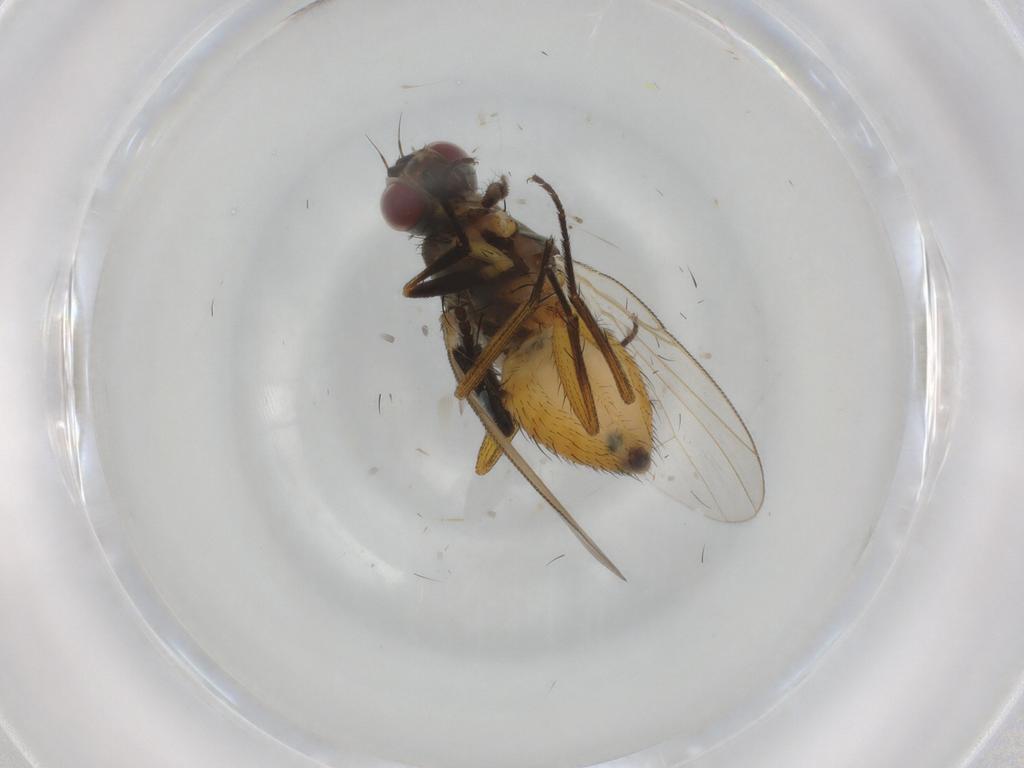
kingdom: Animalia
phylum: Arthropoda
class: Insecta
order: Diptera
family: Muscidae
